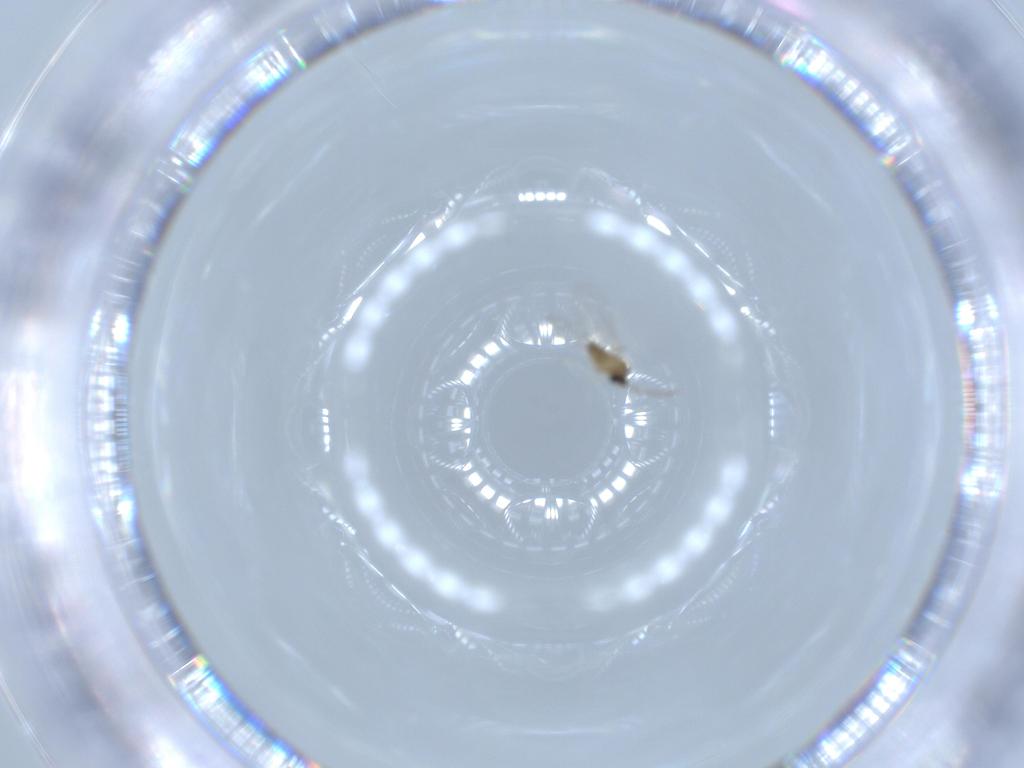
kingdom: Animalia
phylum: Arthropoda
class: Insecta
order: Diptera
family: Cecidomyiidae
